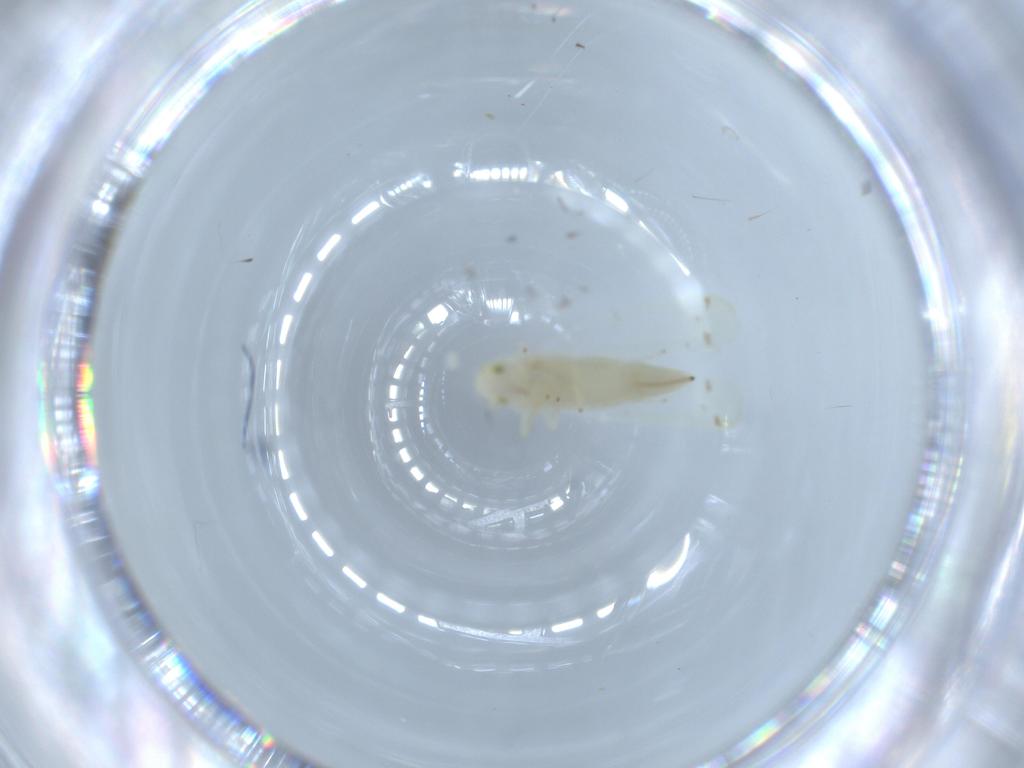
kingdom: Animalia
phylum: Arthropoda
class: Insecta
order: Hemiptera
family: Cicadellidae
